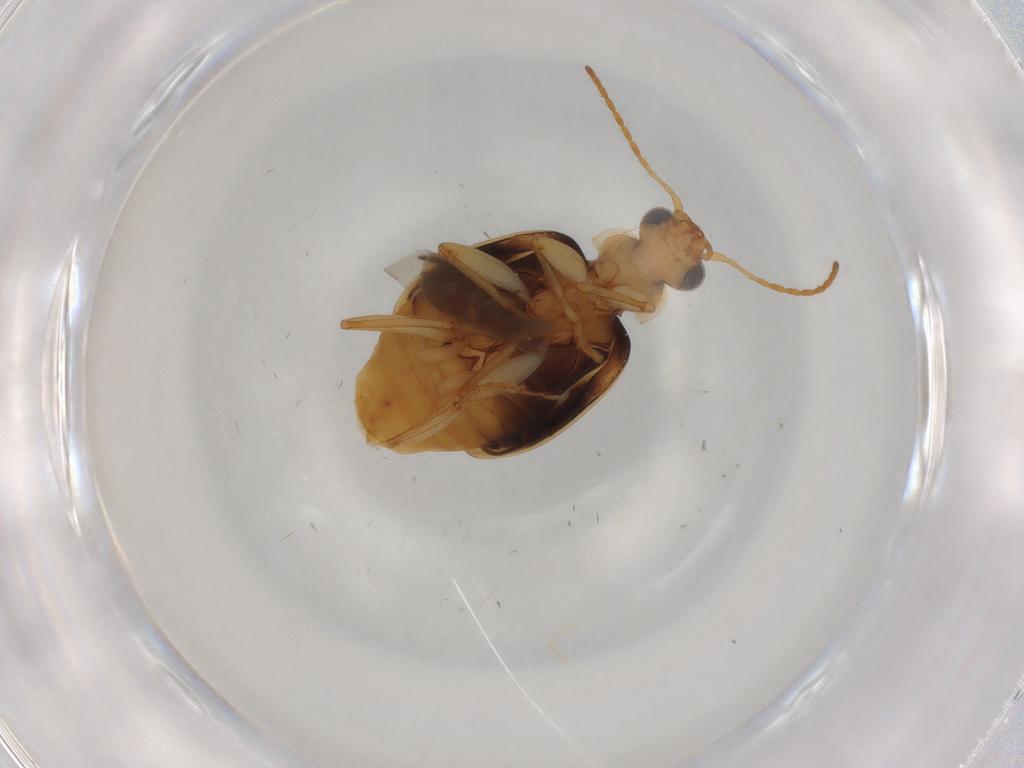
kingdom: Animalia
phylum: Arthropoda
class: Insecta
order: Coleoptera
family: Carabidae
